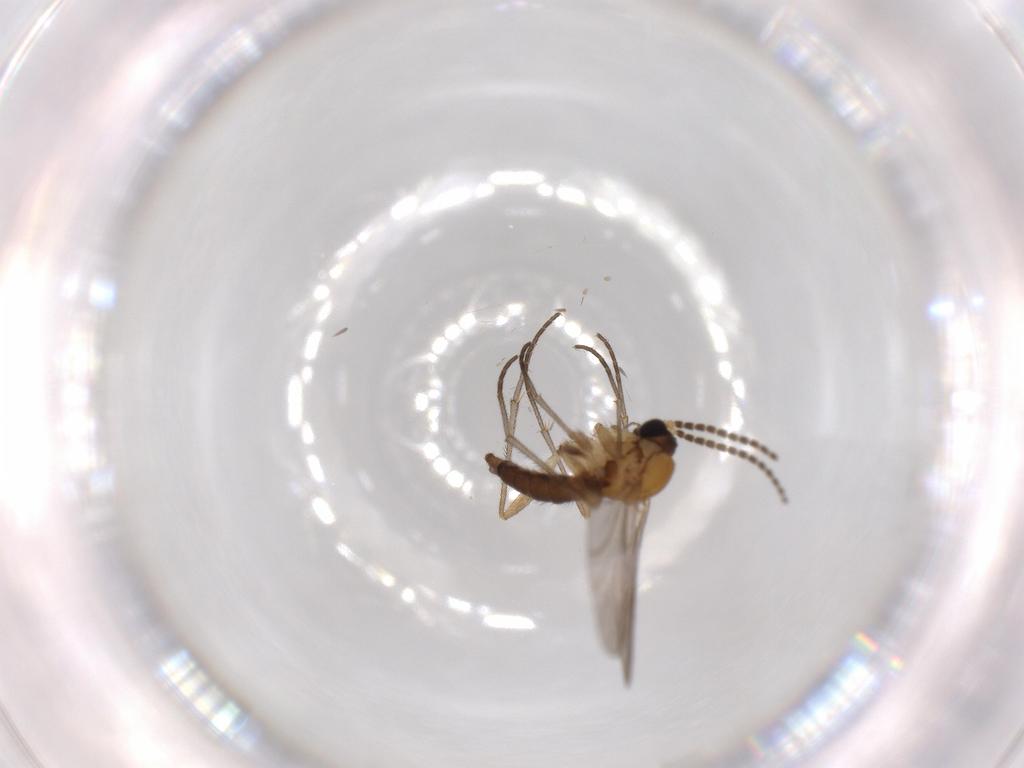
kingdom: Animalia
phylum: Arthropoda
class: Insecta
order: Diptera
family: Sciaridae
